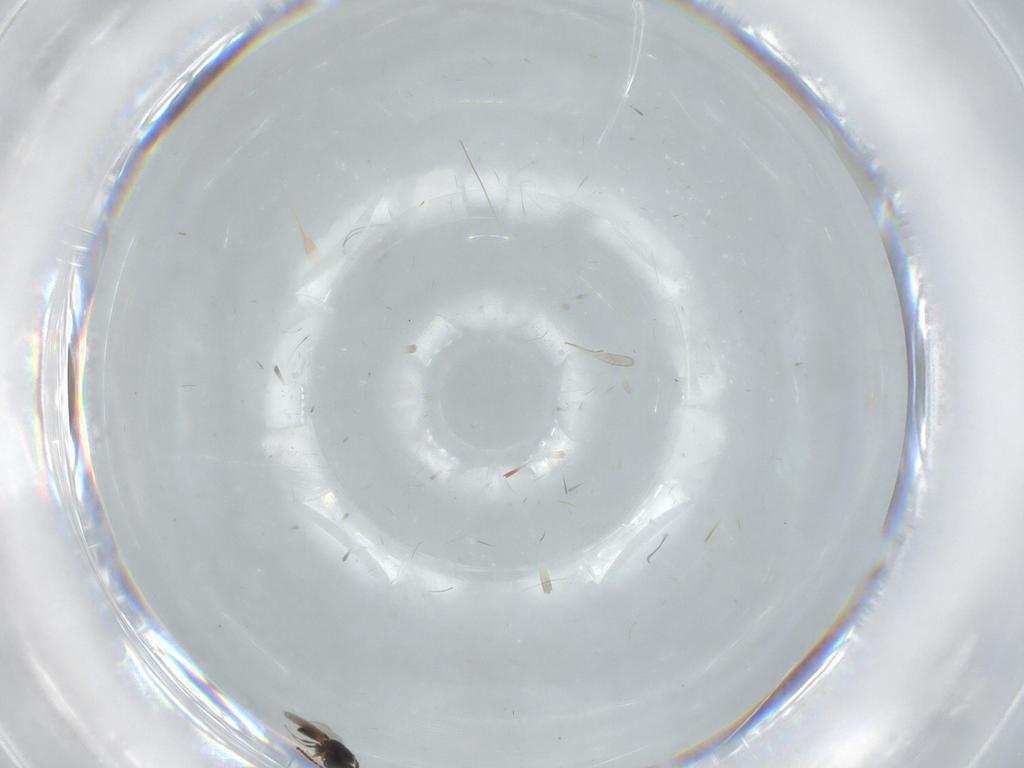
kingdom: Animalia
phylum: Arthropoda
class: Insecta
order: Hymenoptera
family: Scelionidae
